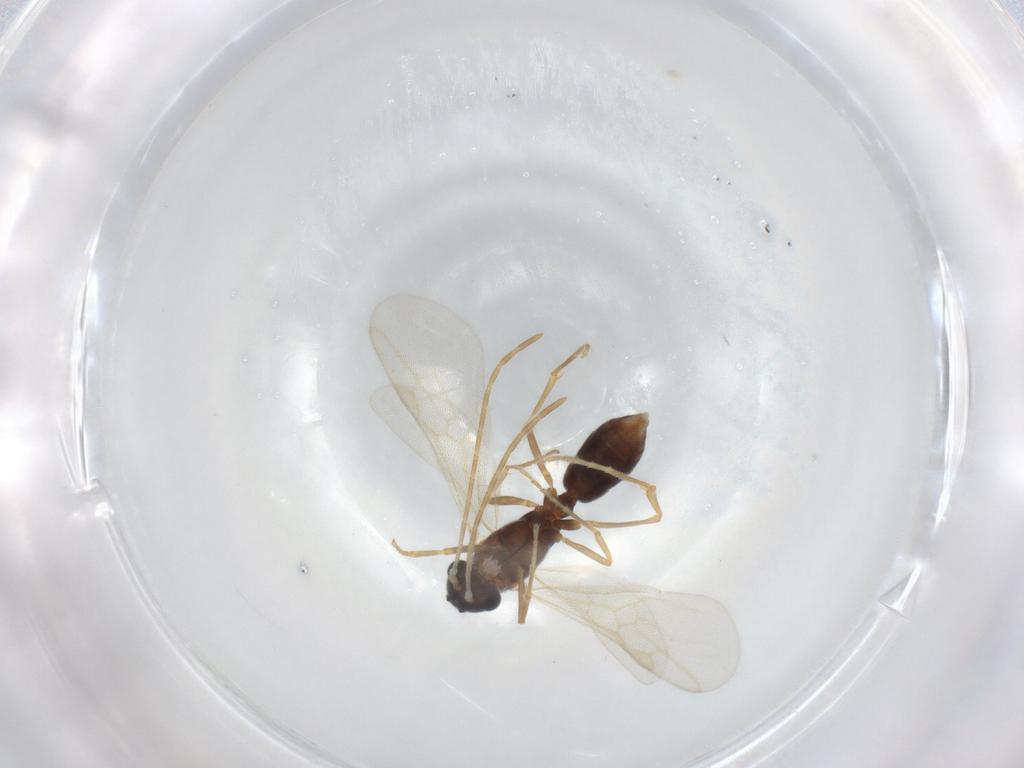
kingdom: Animalia
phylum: Arthropoda
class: Insecta
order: Hymenoptera
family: Formicidae
